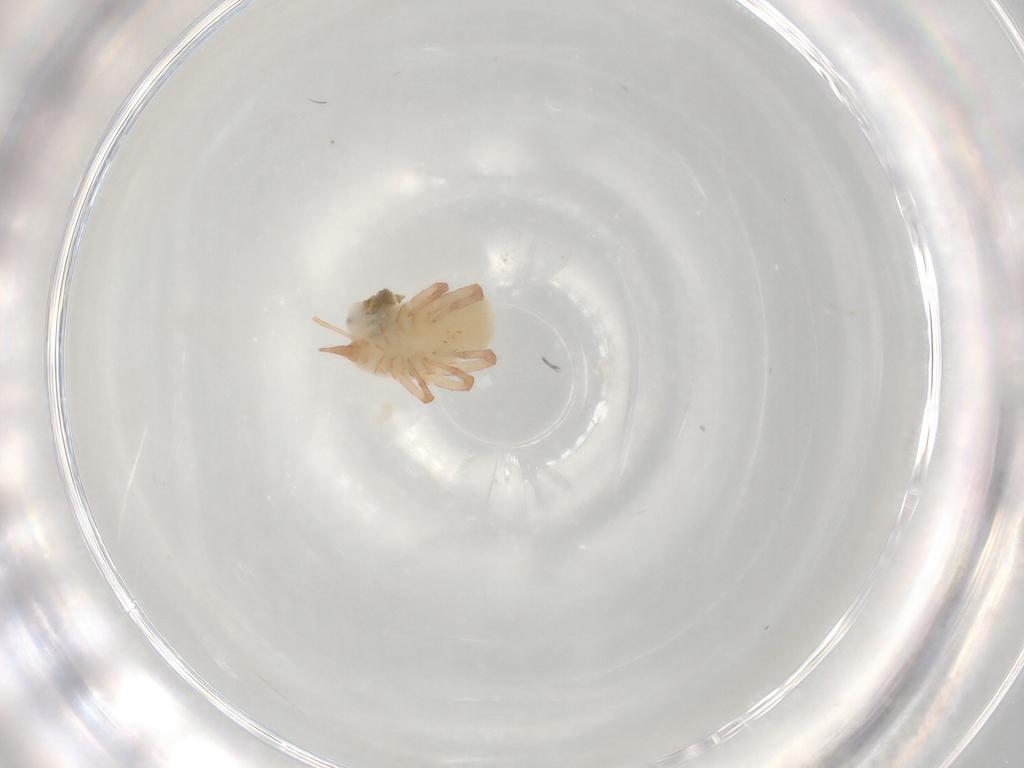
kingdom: Animalia
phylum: Arthropoda
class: Arachnida
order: Trombidiformes
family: Bdellidae
